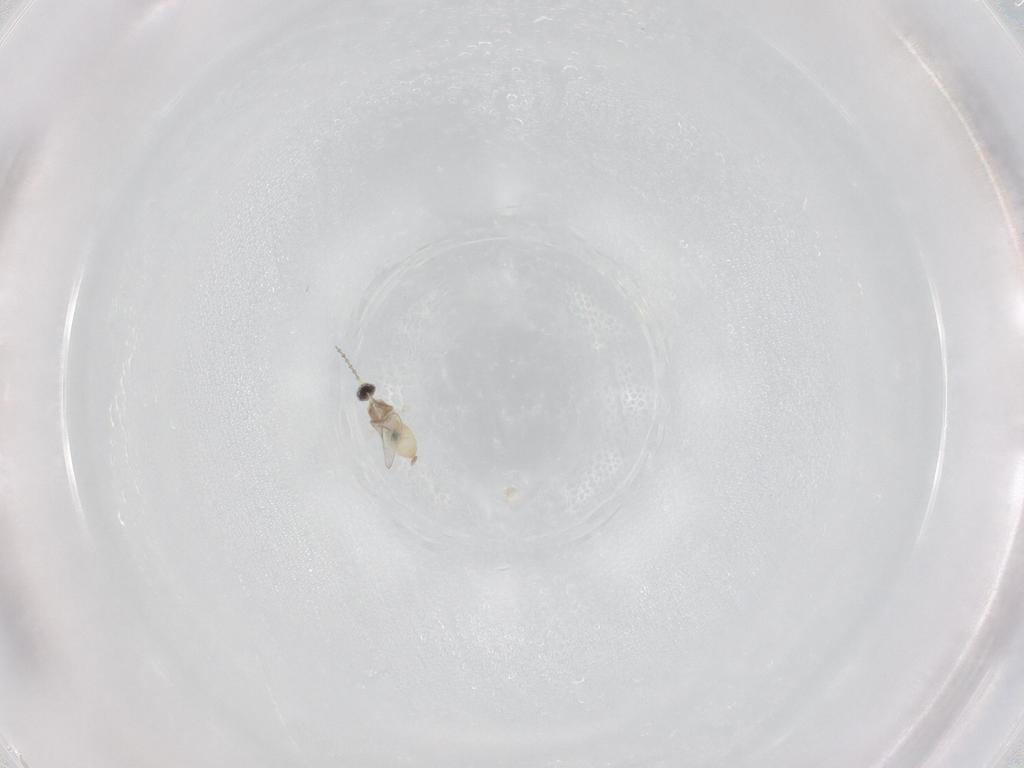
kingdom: Animalia
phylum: Arthropoda
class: Insecta
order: Diptera
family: Cecidomyiidae
